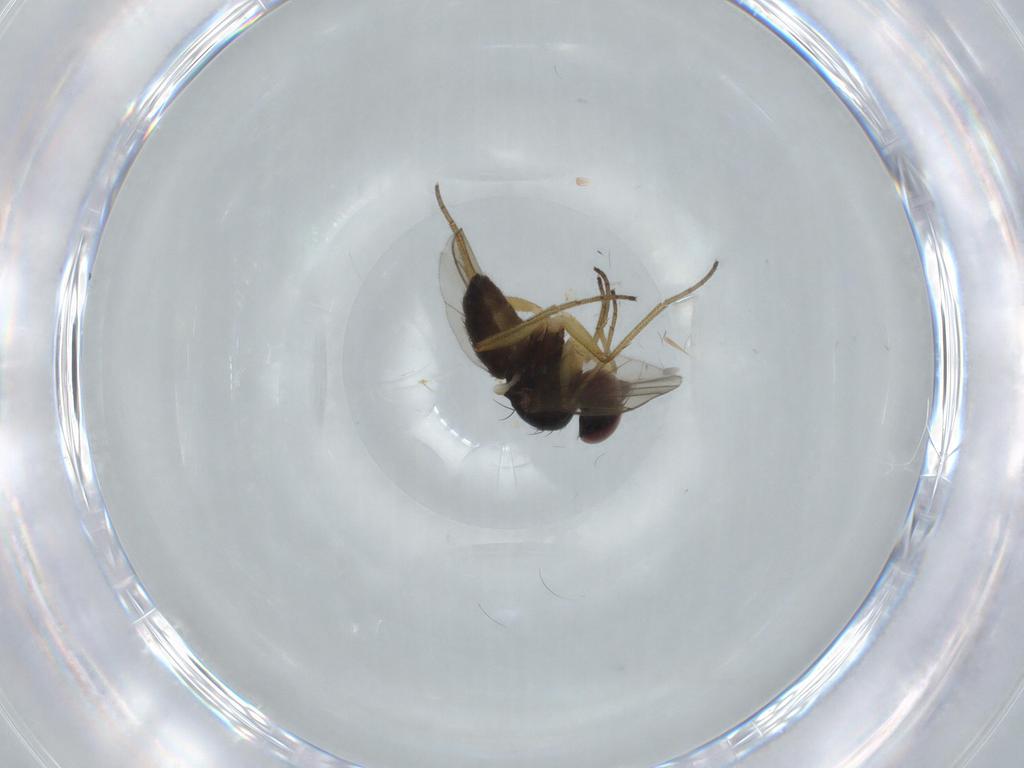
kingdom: Animalia
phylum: Arthropoda
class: Insecta
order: Diptera
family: Dolichopodidae
